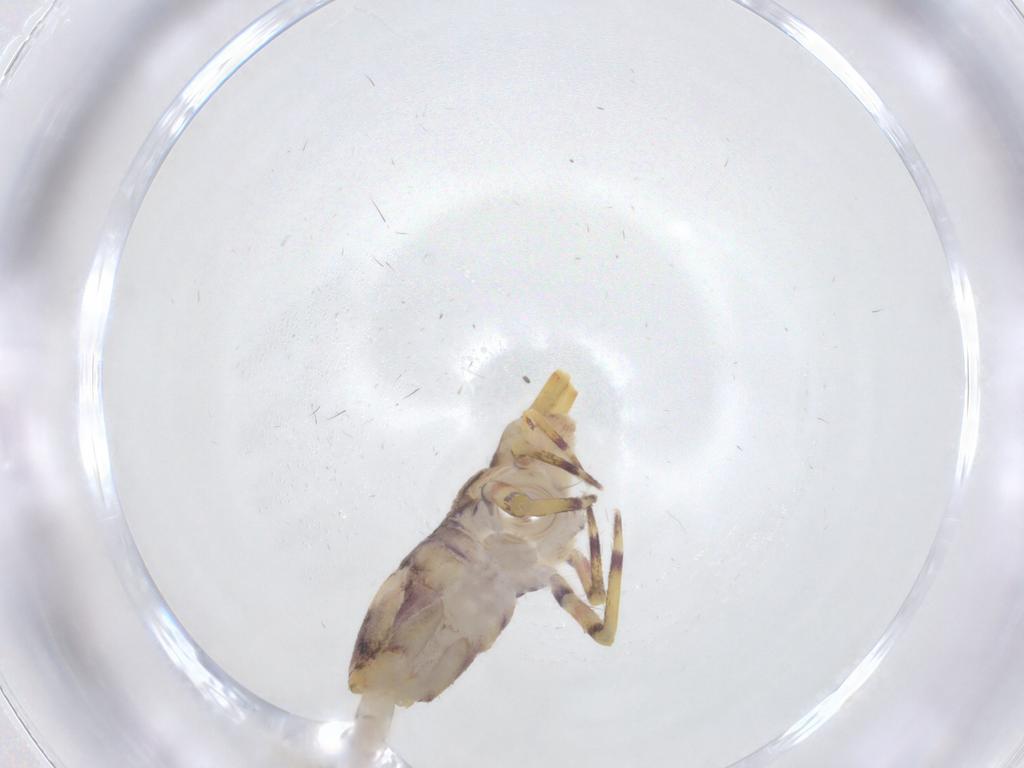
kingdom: Animalia
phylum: Arthropoda
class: Collembola
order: Entomobryomorpha
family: Entomobryidae
